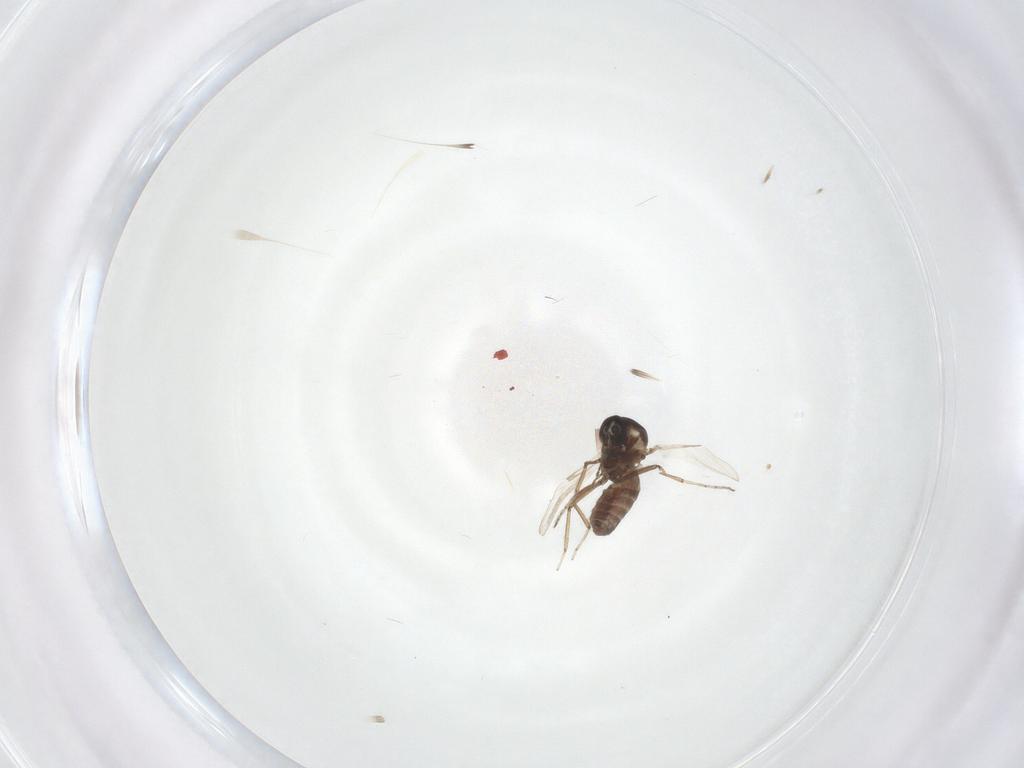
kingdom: Animalia
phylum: Arthropoda
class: Insecta
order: Diptera
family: Ceratopogonidae
